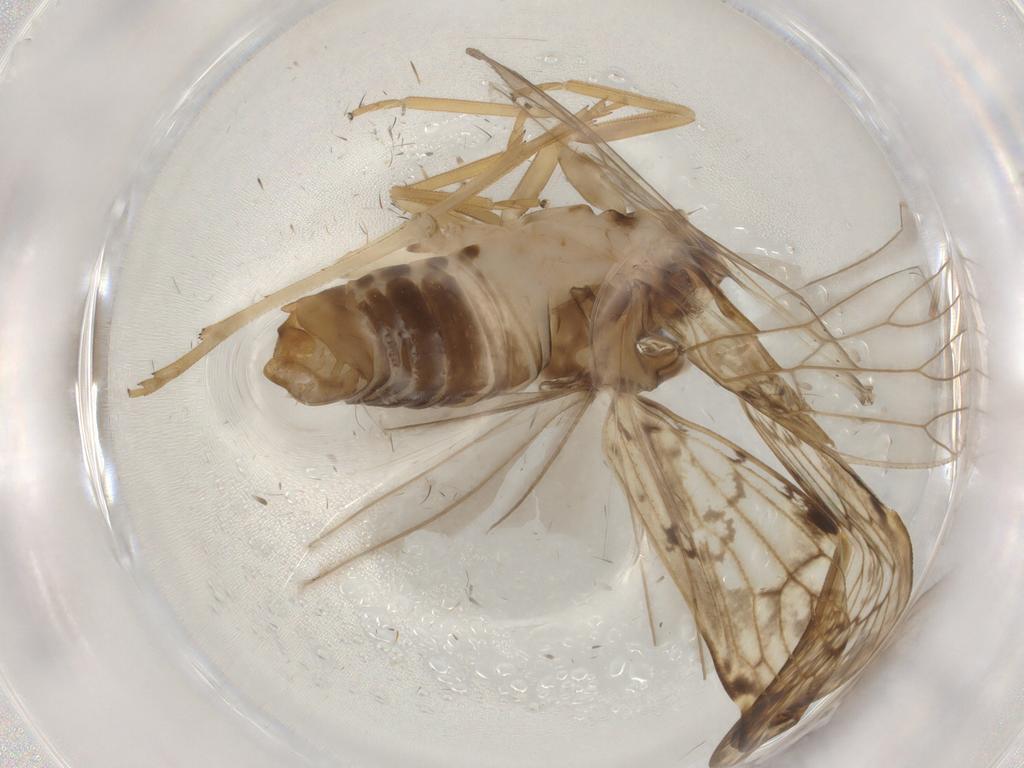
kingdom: Animalia
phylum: Arthropoda
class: Insecta
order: Hemiptera
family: Cixiidae
